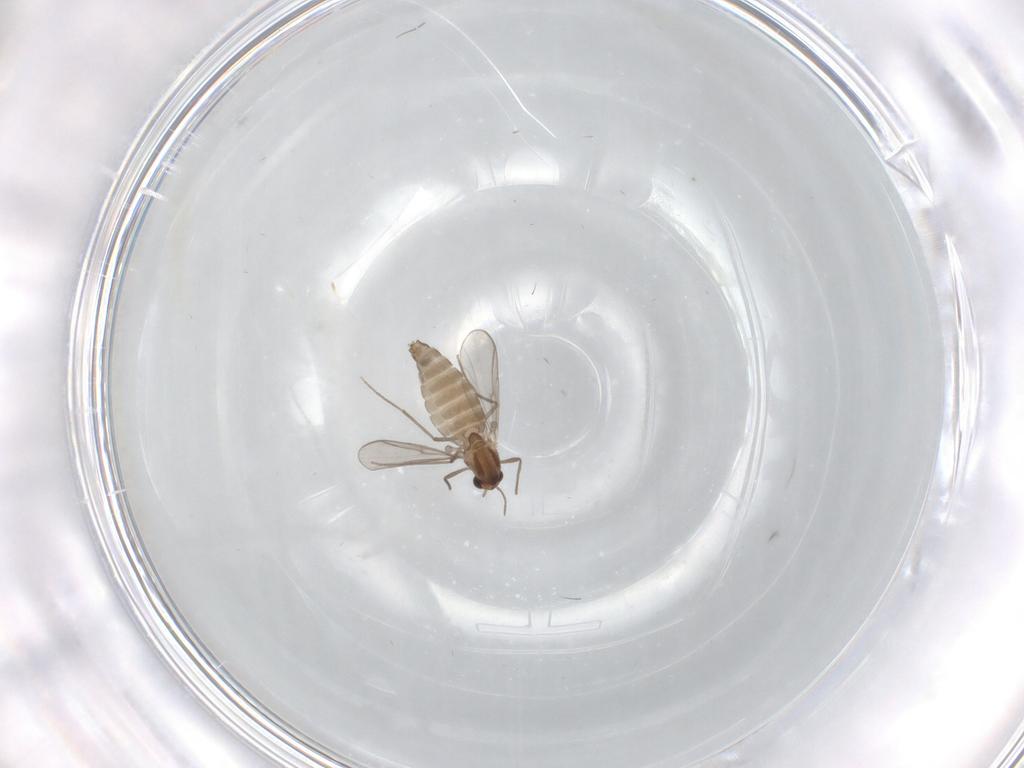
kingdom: Animalia
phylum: Arthropoda
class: Insecta
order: Diptera
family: Chironomidae
